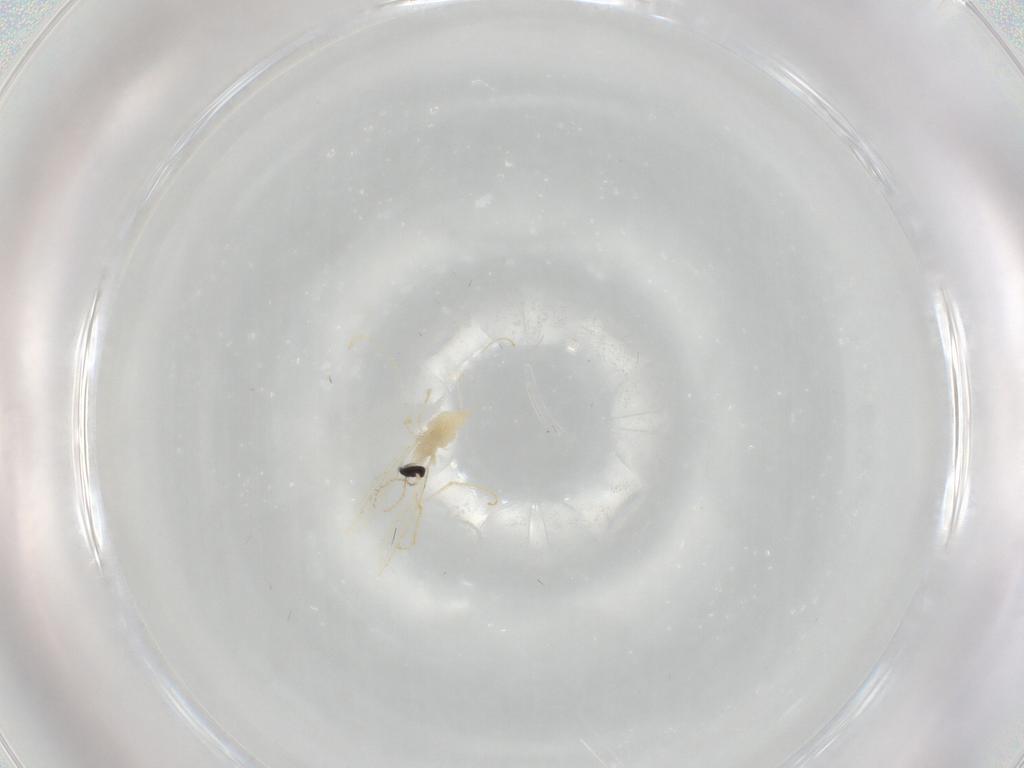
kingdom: Animalia
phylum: Arthropoda
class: Insecta
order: Diptera
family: Cecidomyiidae
